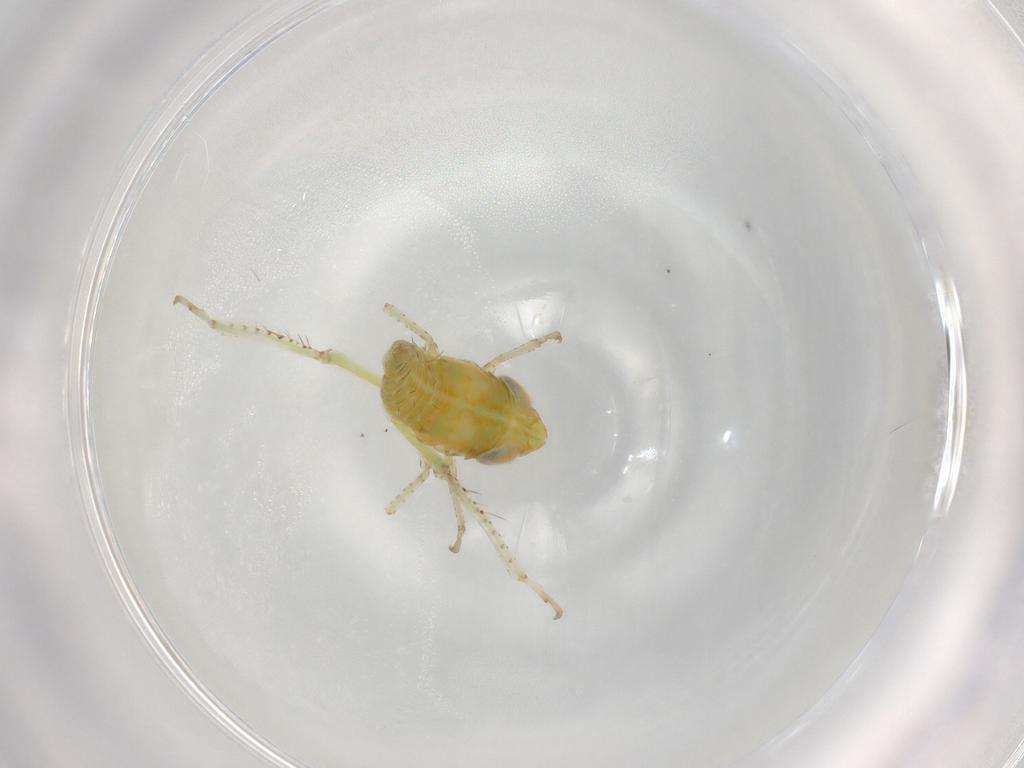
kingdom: Animalia
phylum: Arthropoda
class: Insecta
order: Hemiptera
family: Cicadellidae
